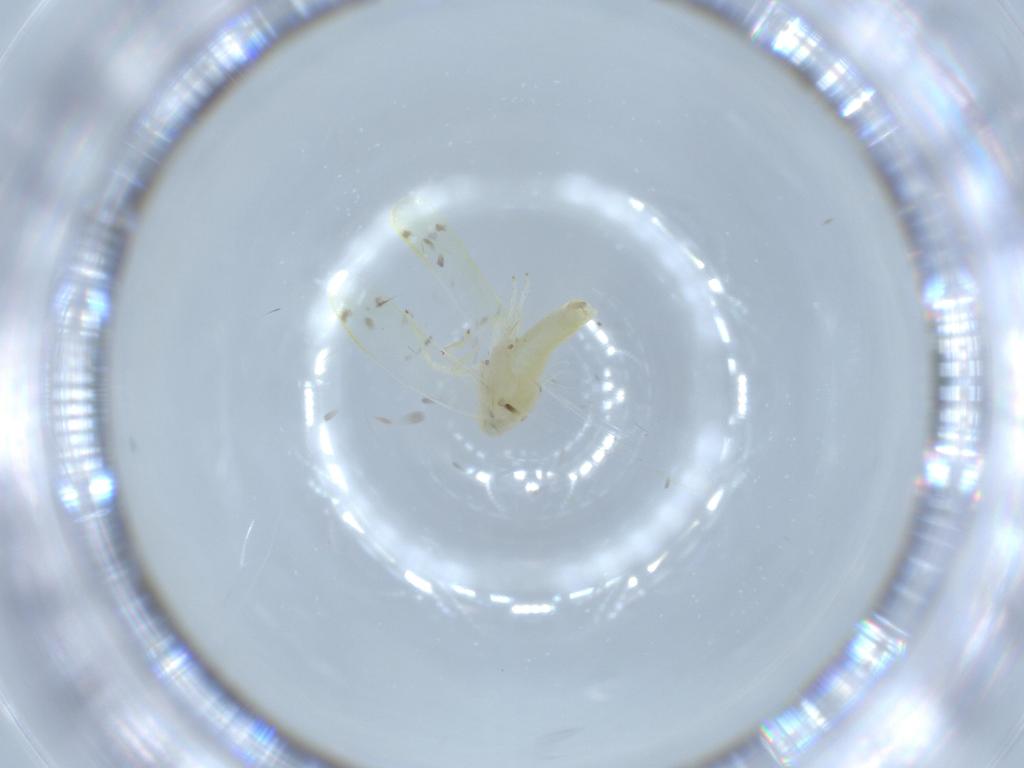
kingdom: Animalia
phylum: Arthropoda
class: Insecta
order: Hemiptera
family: Cicadellidae
